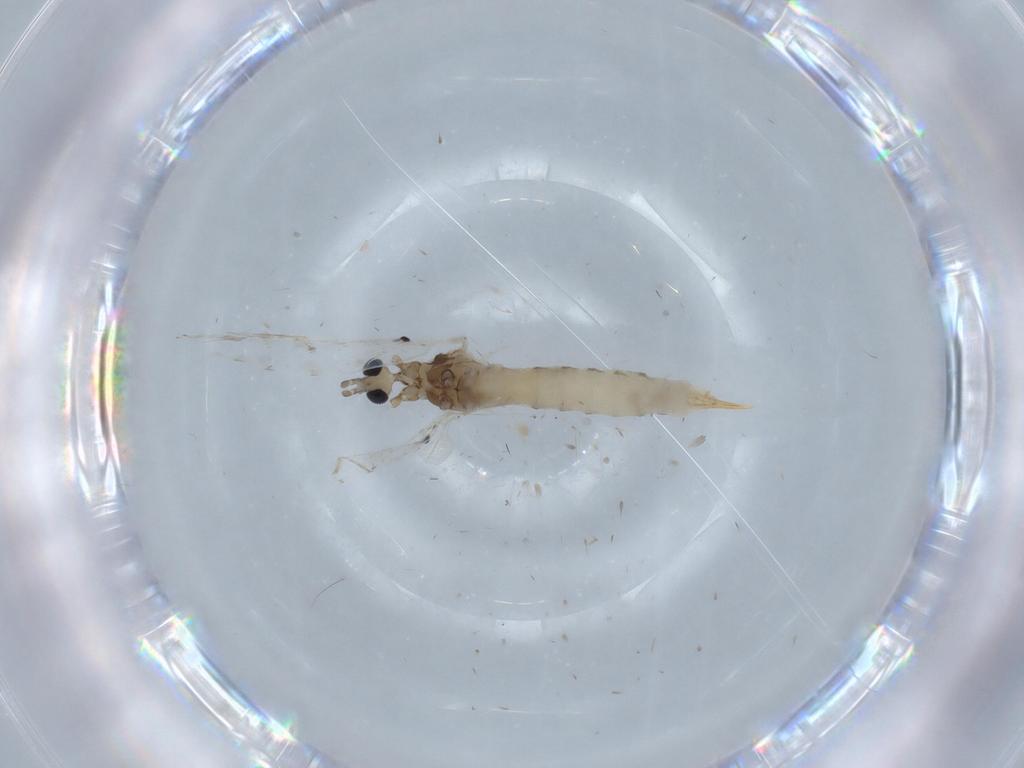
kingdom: Animalia
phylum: Arthropoda
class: Insecta
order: Diptera
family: Limoniidae
